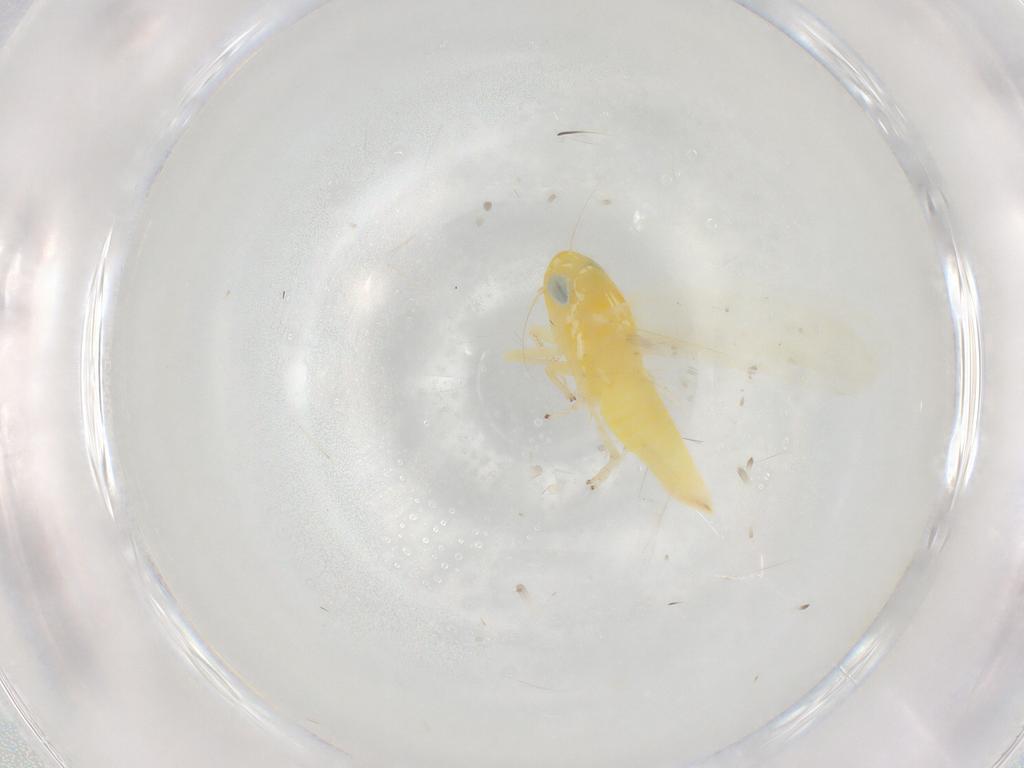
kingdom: Animalia
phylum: Arthropoda
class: Insecta
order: Hemiptera
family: Cicadellidae
